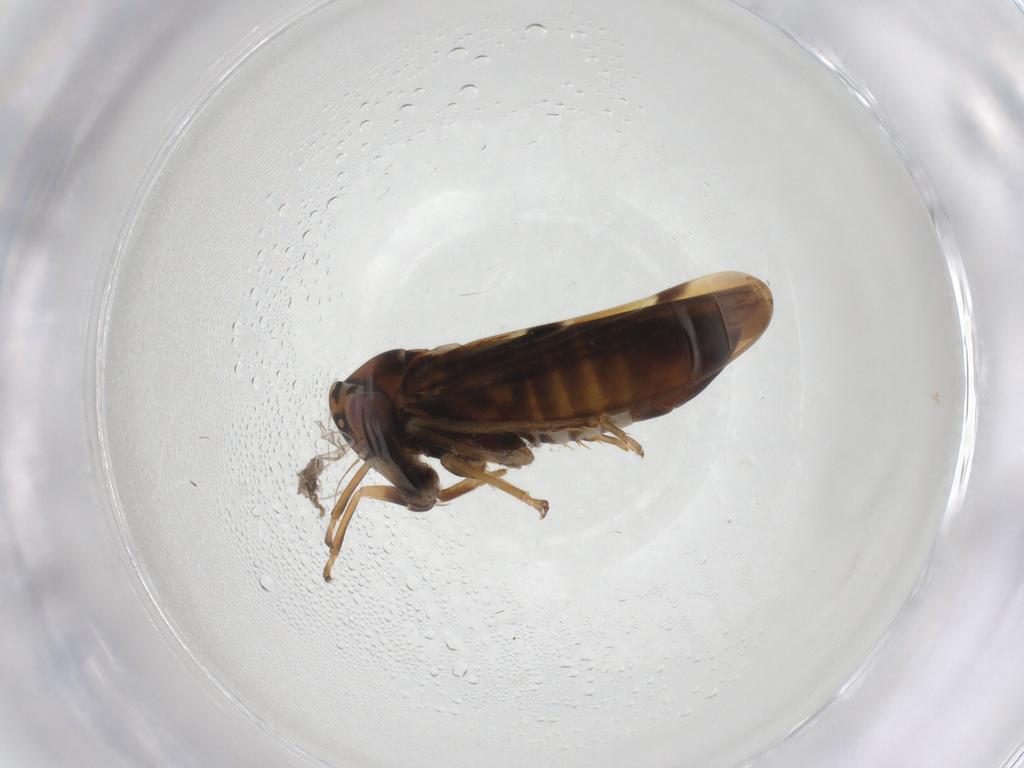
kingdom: Animalia
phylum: Arthropoda
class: Insecta
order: Hemiptera
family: Cicadellidae
